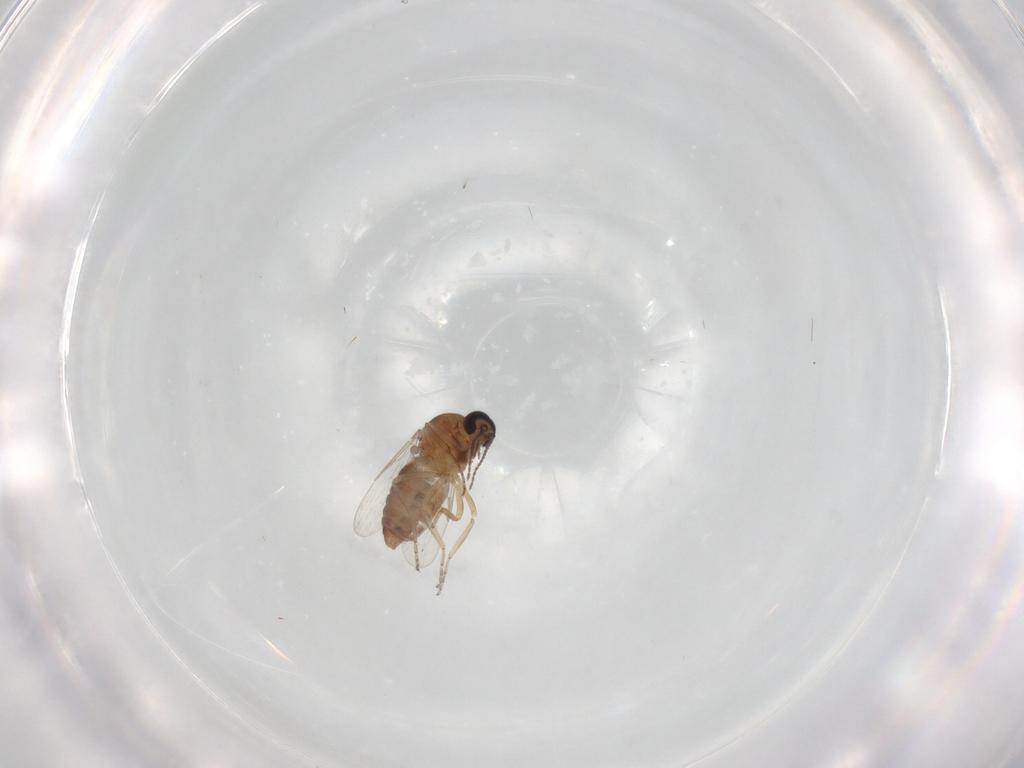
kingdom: Animalia
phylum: Arthropoda
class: Insecta
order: Diptera
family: Ceratopogonidae
